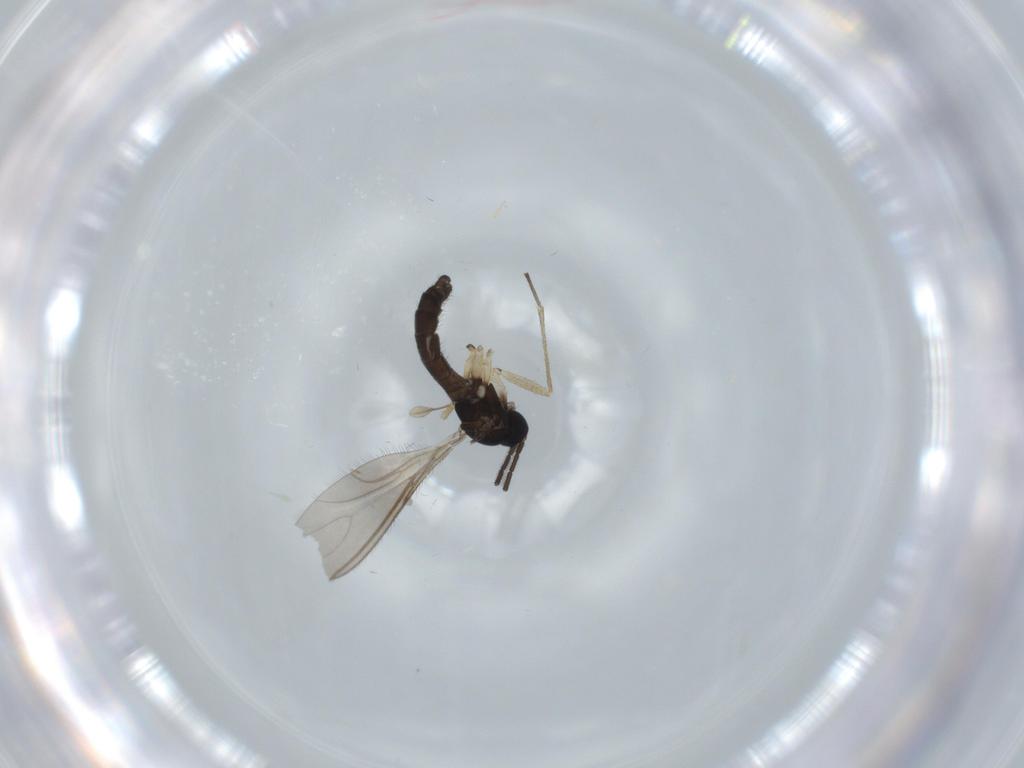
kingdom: Animalia
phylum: Arthropoda
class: Insecta
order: Diptera
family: Sciaridae
